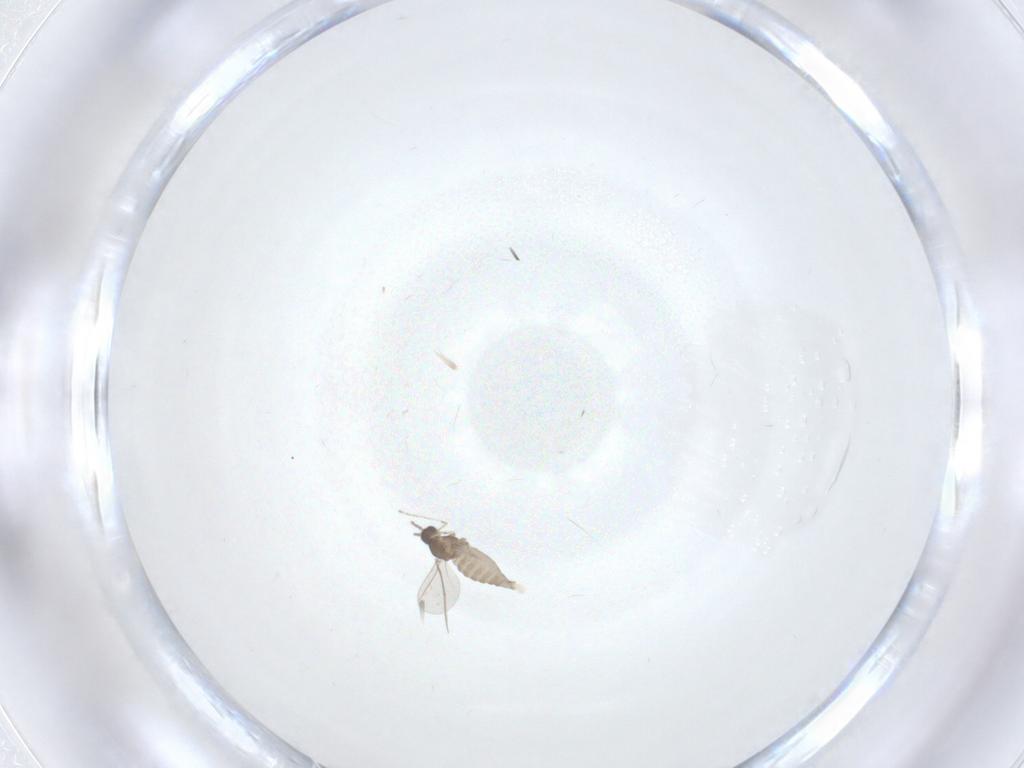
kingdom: Animalia
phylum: Arthropoda
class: Insecta
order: Diptera
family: Cecidomyiidae
